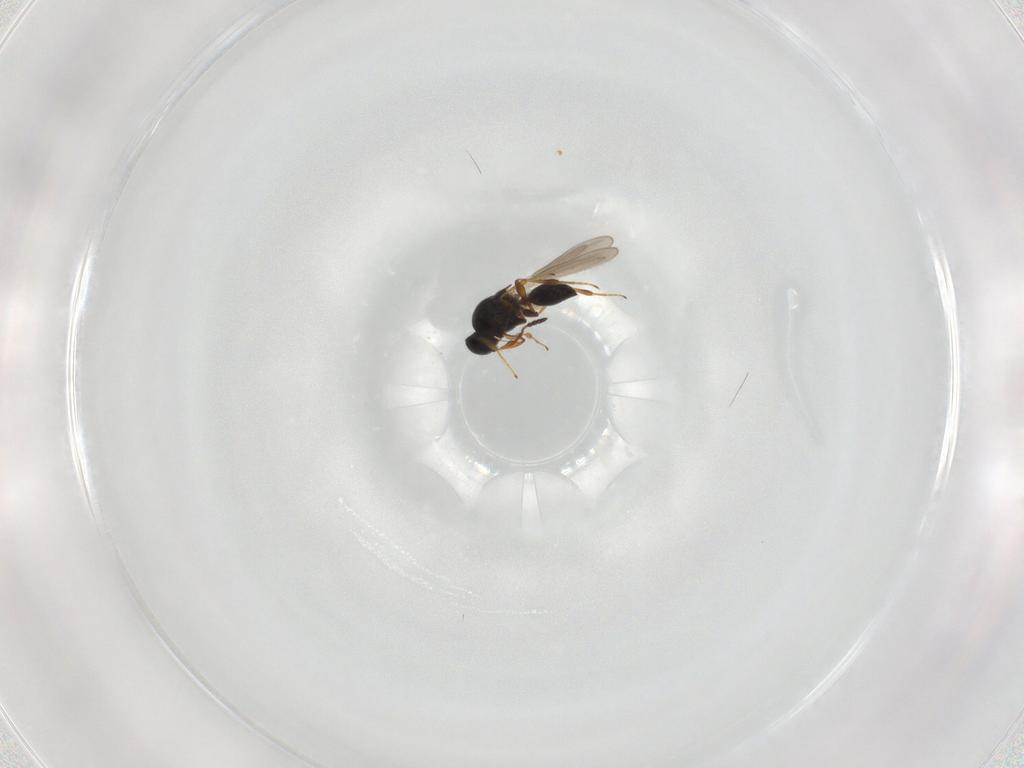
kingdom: Animalia
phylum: Arthropoda
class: Insecta
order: Hymenoptera
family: Platygastridae
